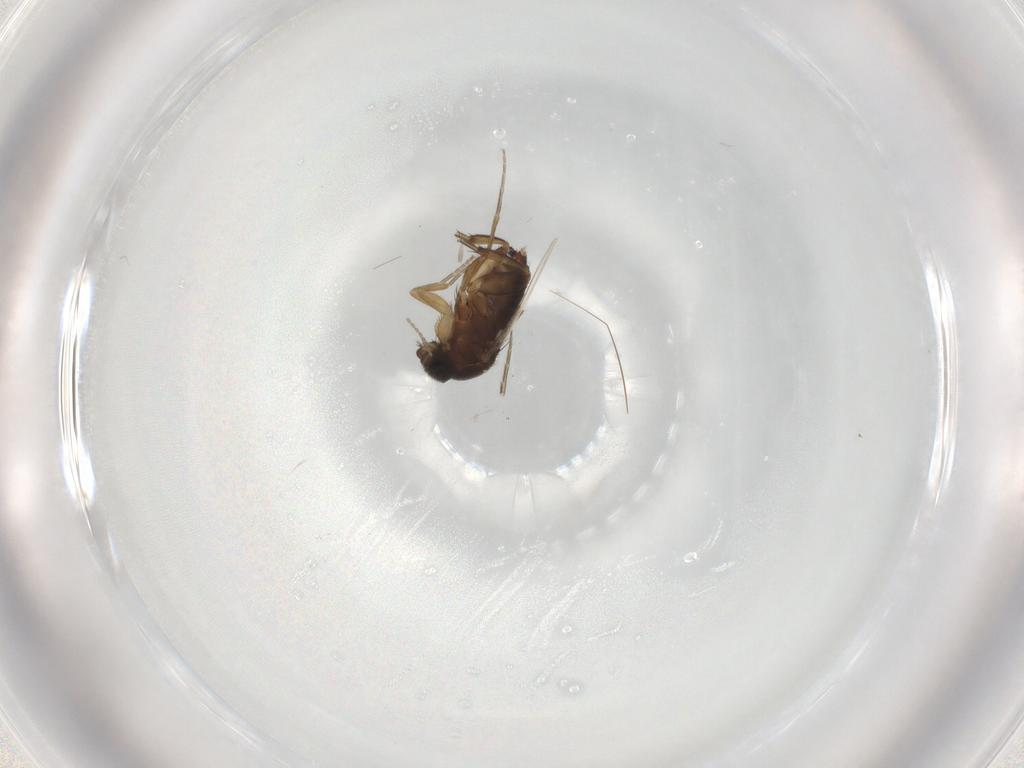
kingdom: Animalia
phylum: Arthropoda
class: Insecta
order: Diptera
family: Phoridae
